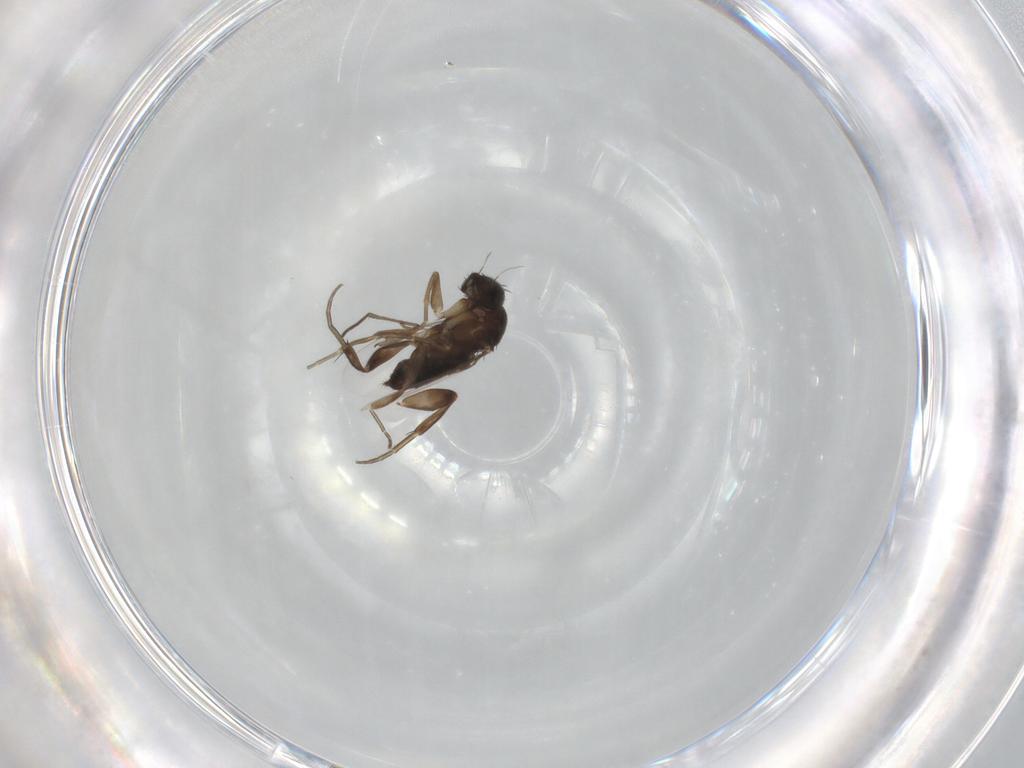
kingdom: Animalia
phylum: Arthropoda
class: Insecta
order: Diptera
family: Phoridae
